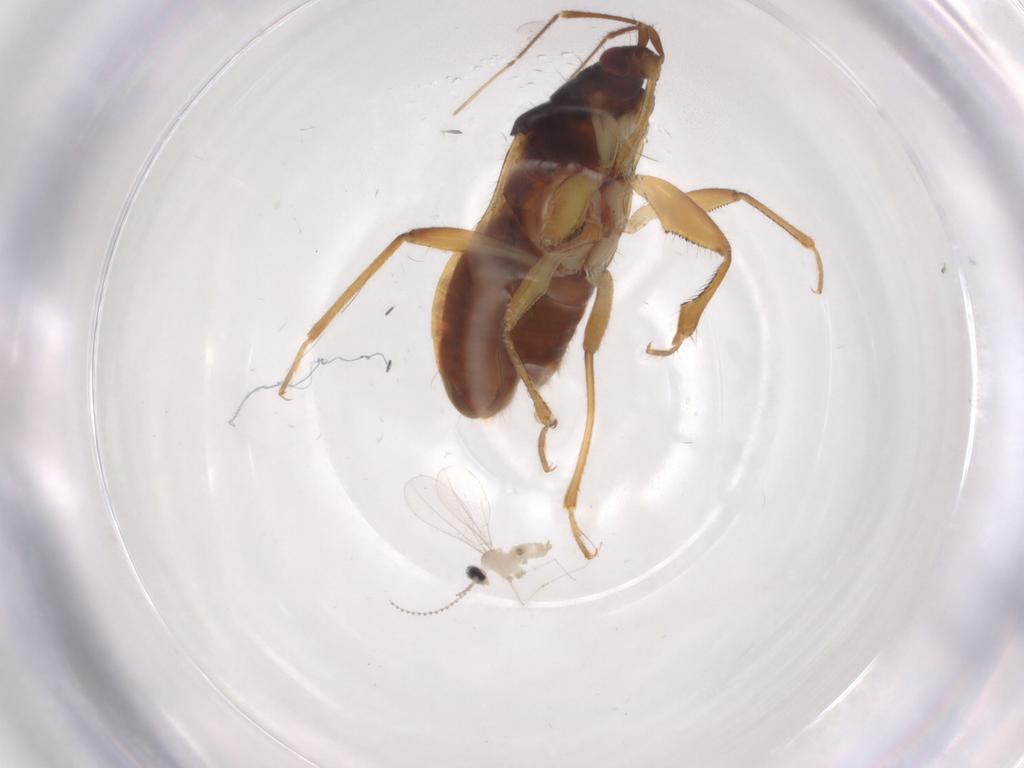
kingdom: Animalia
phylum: Arthropoda
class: Insecta
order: Hemiptera
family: Nabidae
